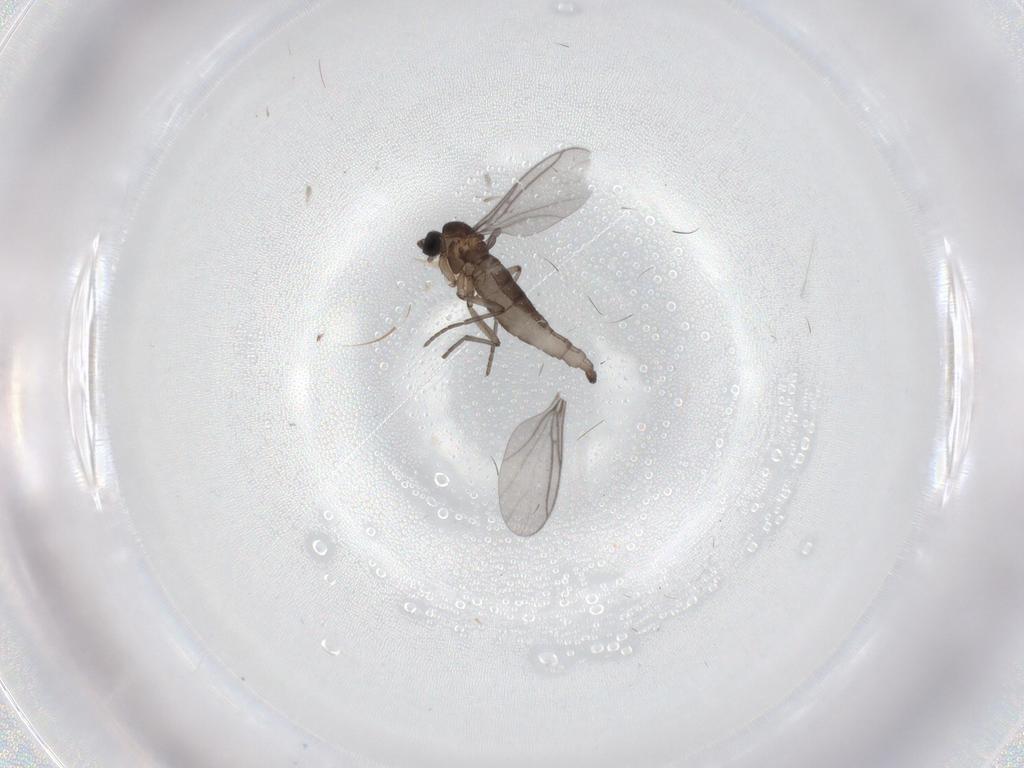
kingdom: Animalia
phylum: Arthropoda
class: Insecta
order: Diptera
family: Sciaridae
